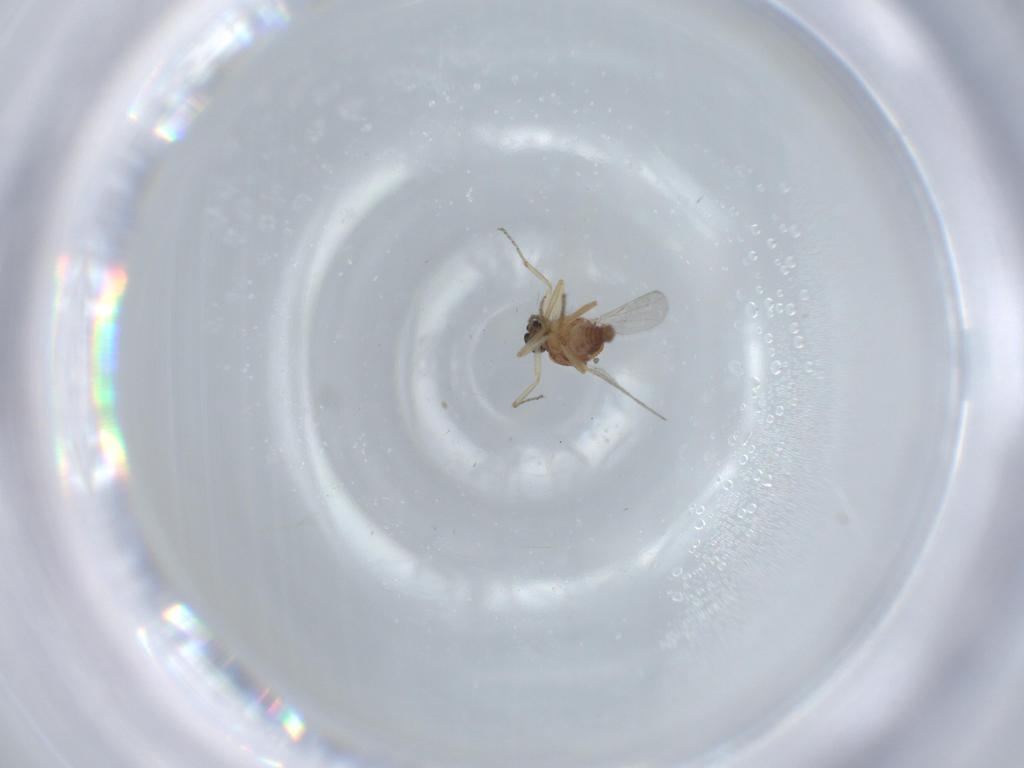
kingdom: Animalia
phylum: Arthropoda
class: Insecta
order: Diptera
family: Ceratopogonidae
